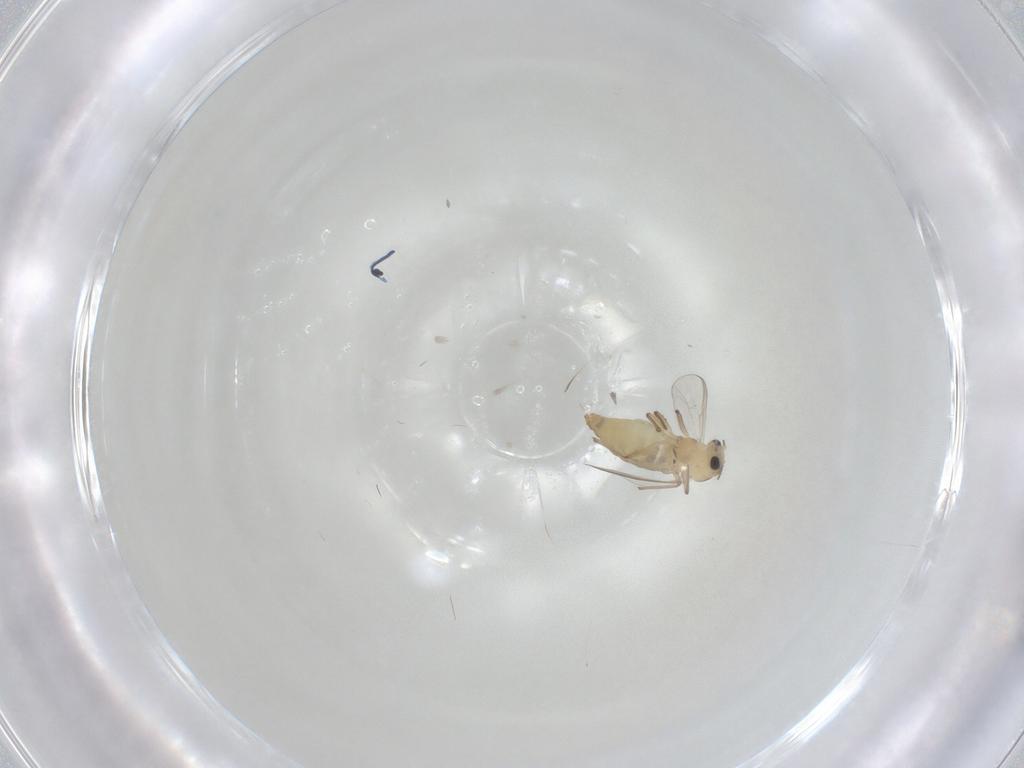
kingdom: Animalia
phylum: Arthropoda
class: Insecta
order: Diptera
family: Chironomidae
